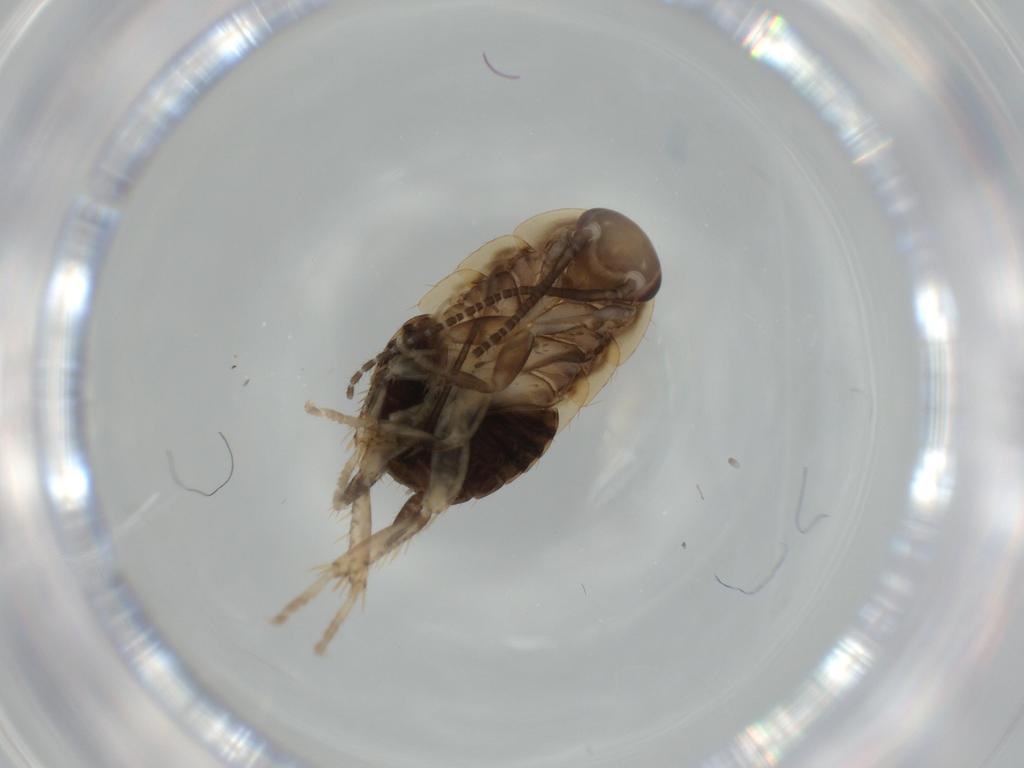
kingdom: Animalia
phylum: Arthropoda
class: Insecta
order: Blattodea
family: Ectobiidae
